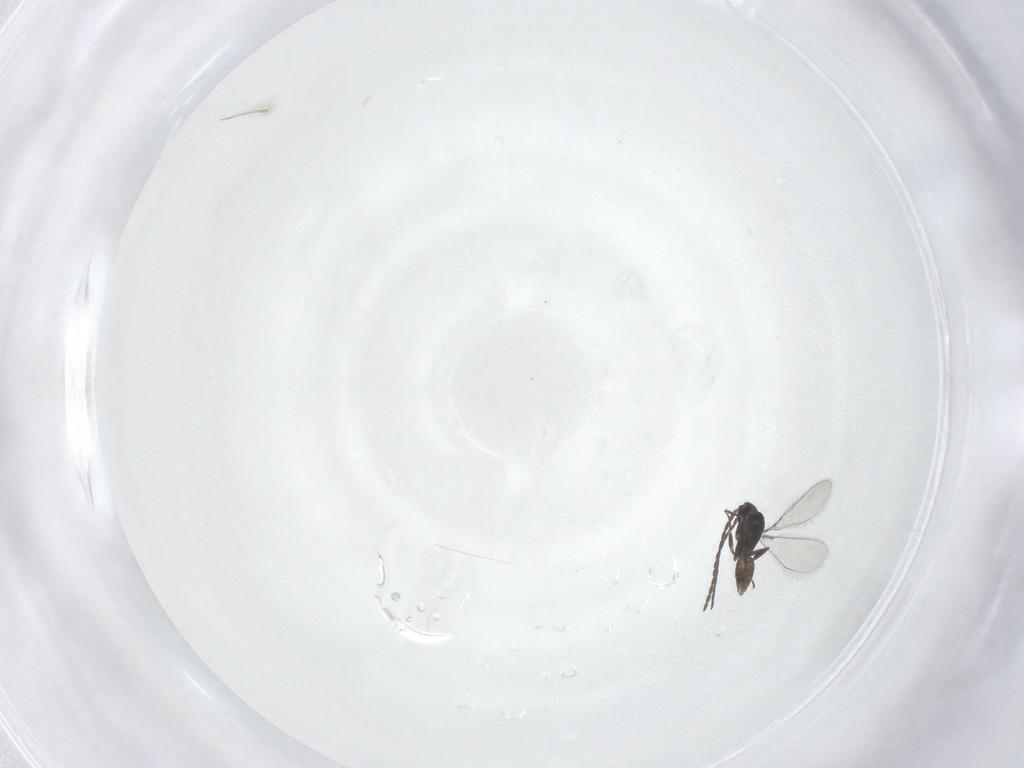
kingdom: Animalia
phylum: Arthropoda
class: Insecta
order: Hymenoptera
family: Mymaridae
